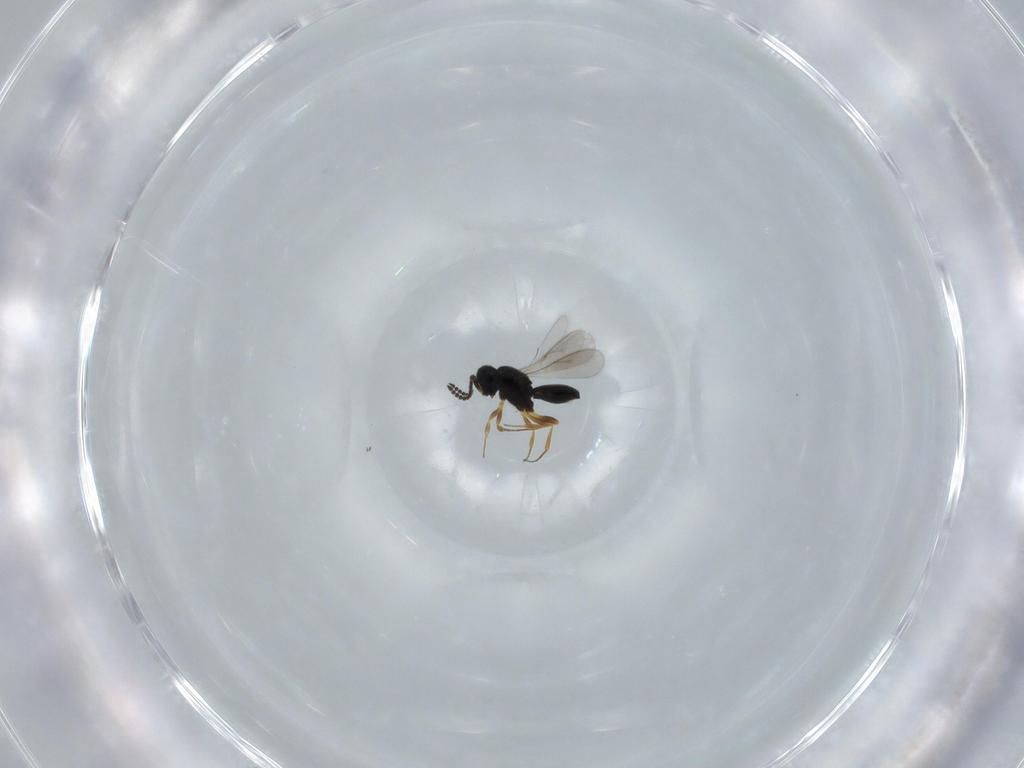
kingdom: Animalia
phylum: Arthropoda
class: Insecta
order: Hymenoptera
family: Scelionidae
